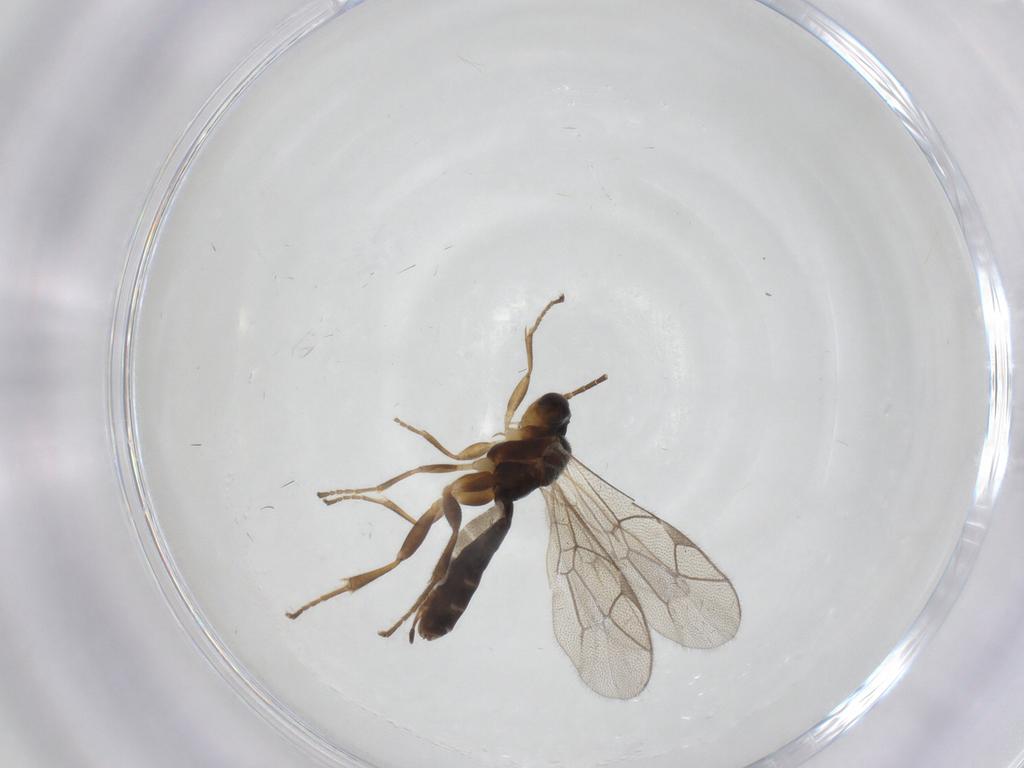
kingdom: Animalia
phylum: Arthropoda
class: Insecta
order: Hymenoptera
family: Ichneumonidae
